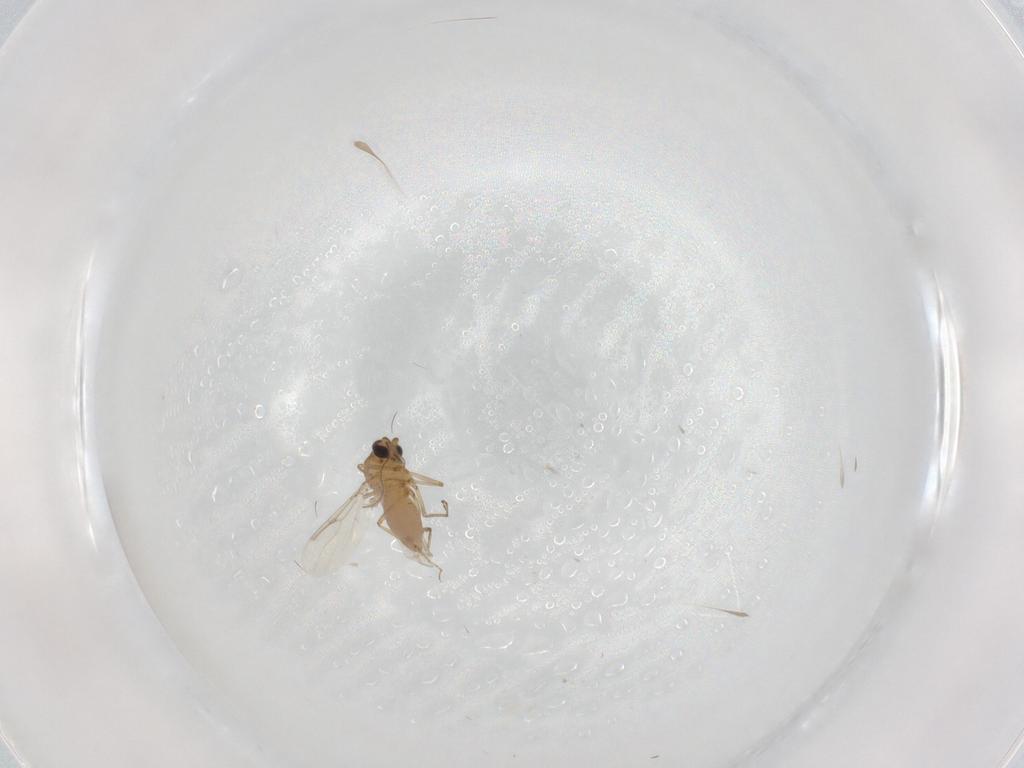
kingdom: Animalia
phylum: Arthropoda
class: Insecta
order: Diptera
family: Ceratopogonidae
